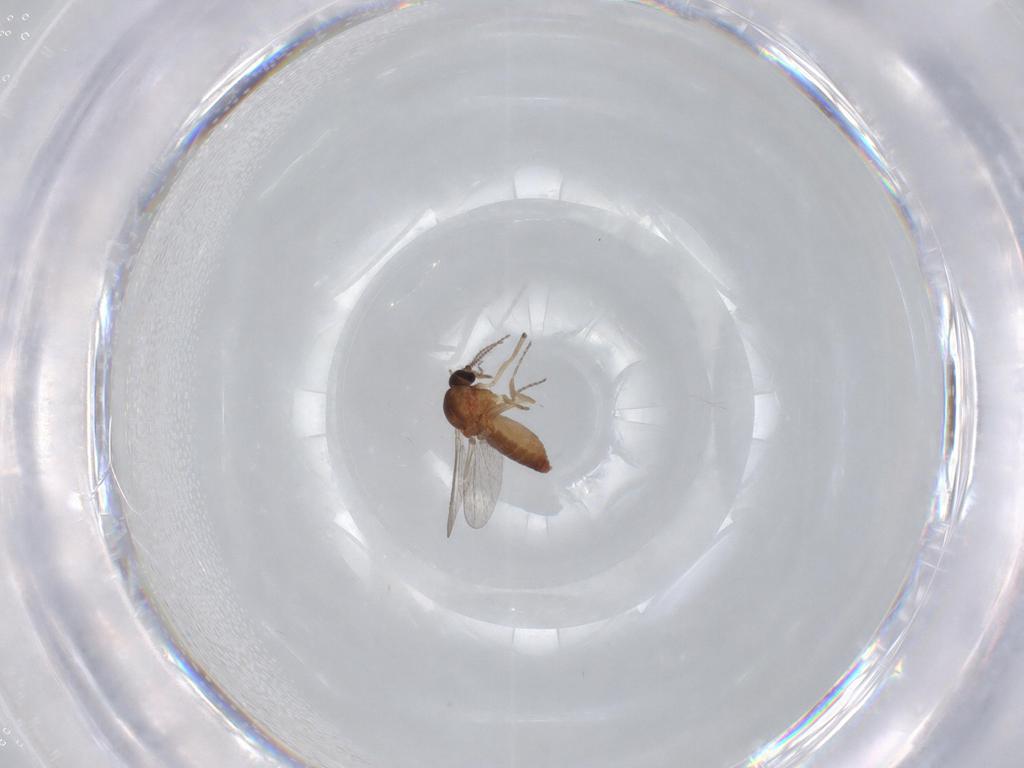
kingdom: Animalia
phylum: Arthropoda
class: Insecta
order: Diptera
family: Ceratopogonidae
